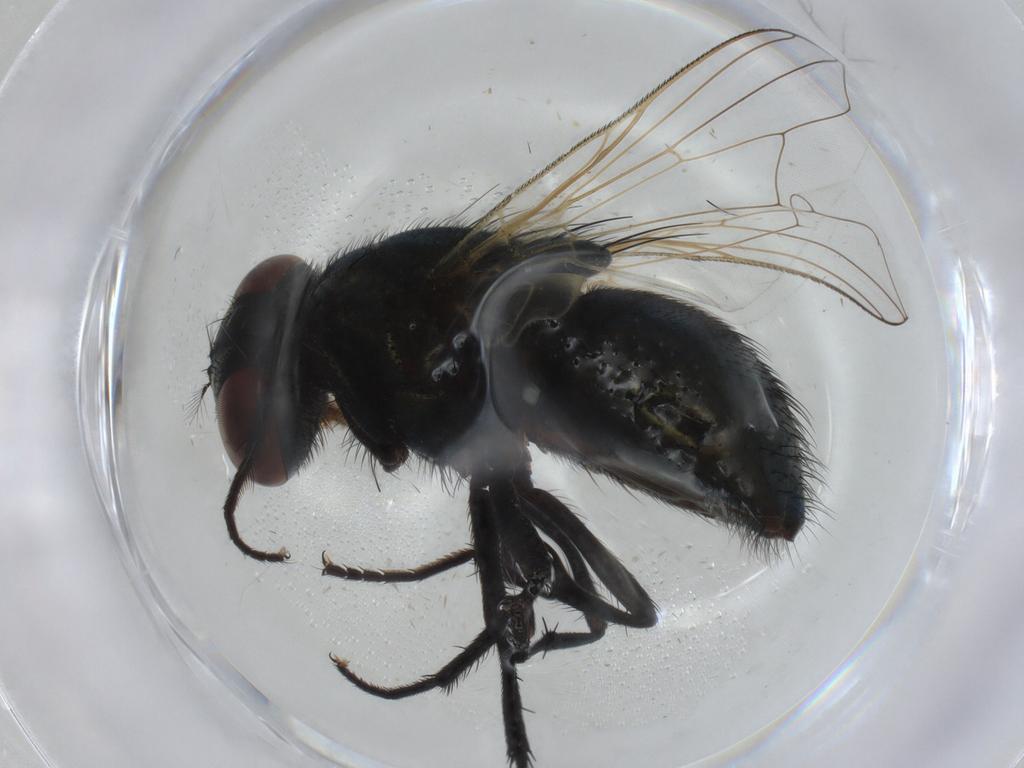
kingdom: Animalia
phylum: Arthropoda
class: Insecta
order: Diptera
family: Muscidae
